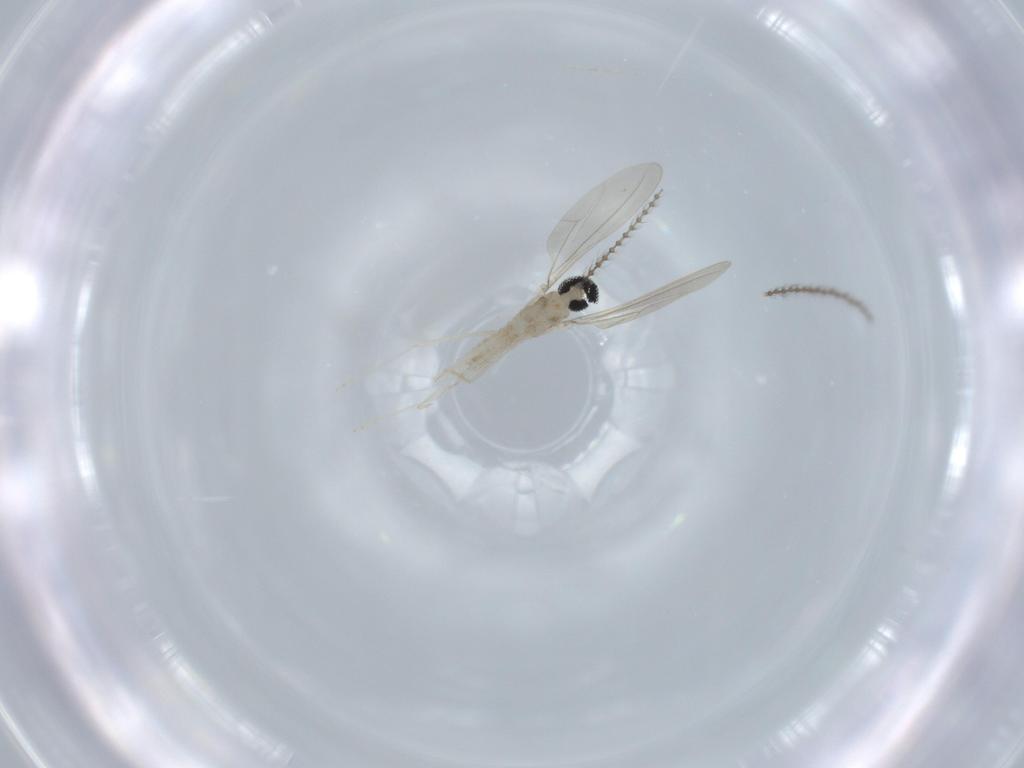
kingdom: Animalia
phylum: Arthropoda
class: Insecta
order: Diptera
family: Cecidomyiidae
